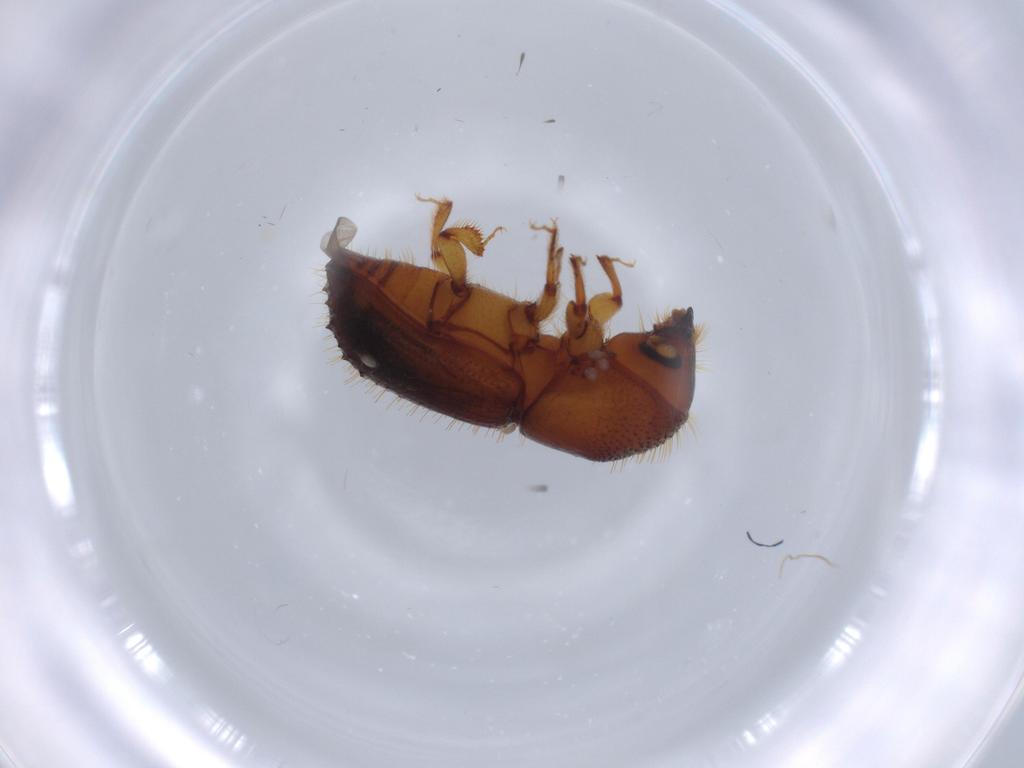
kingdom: Animalia
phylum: Arthropoda
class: Insecta
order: Coleoptera
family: Curculionidae
